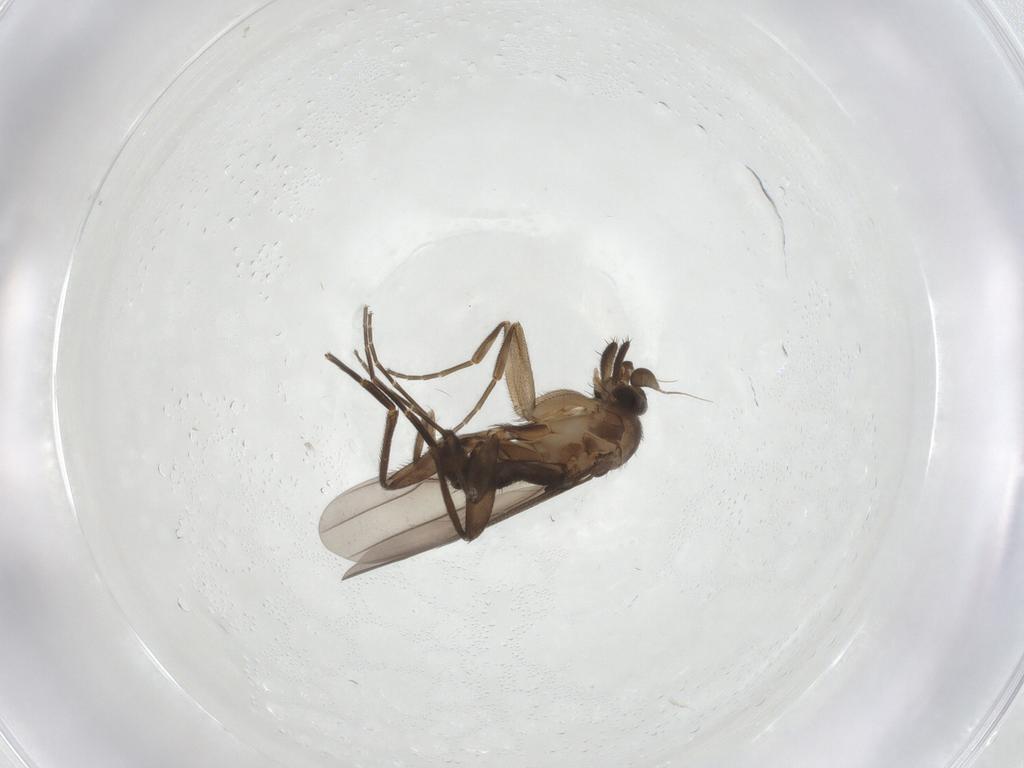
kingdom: Animalia
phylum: Arthropoda
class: Insecta
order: Diptera
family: Phoridae
